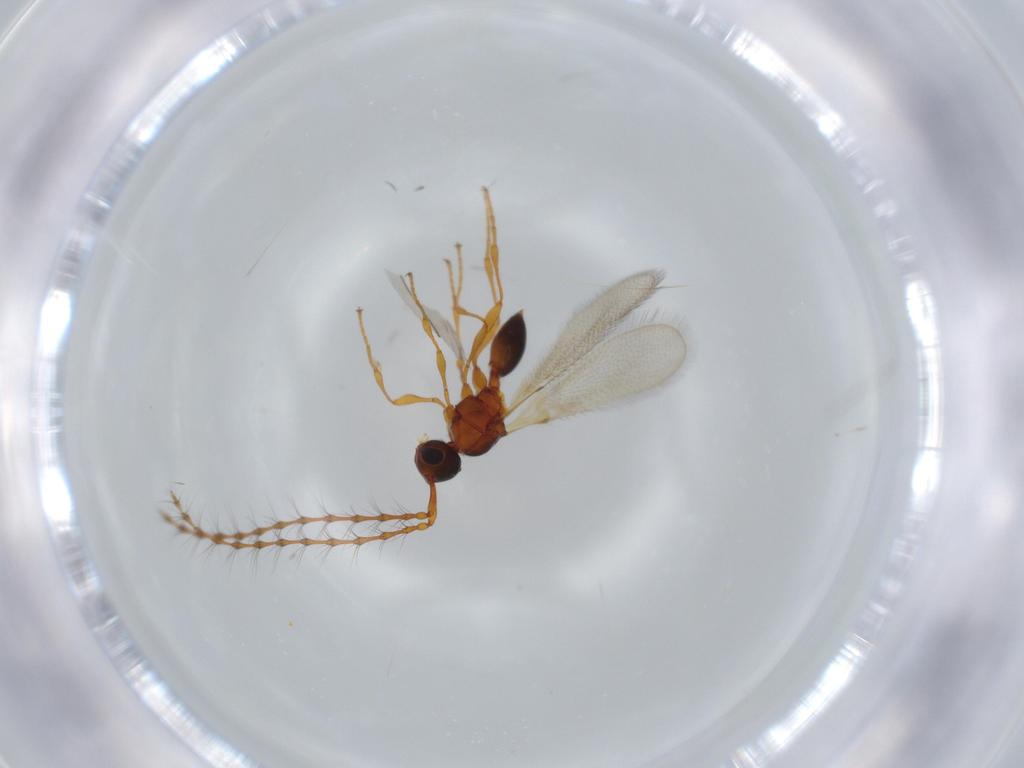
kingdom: Animalia
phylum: Arthropoda
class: Insecta
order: Hymenoptera
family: Diapriidae
